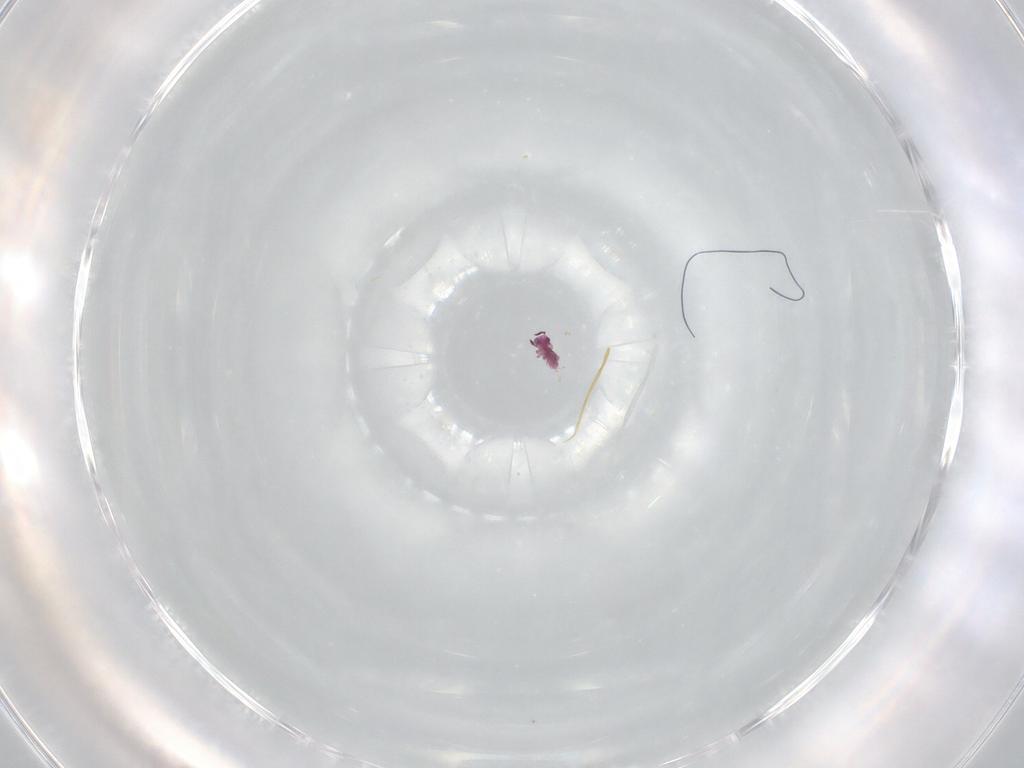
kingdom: Animalia
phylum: Arthropoda
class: Collembola
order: Symphypleona
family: Sminthurididae
